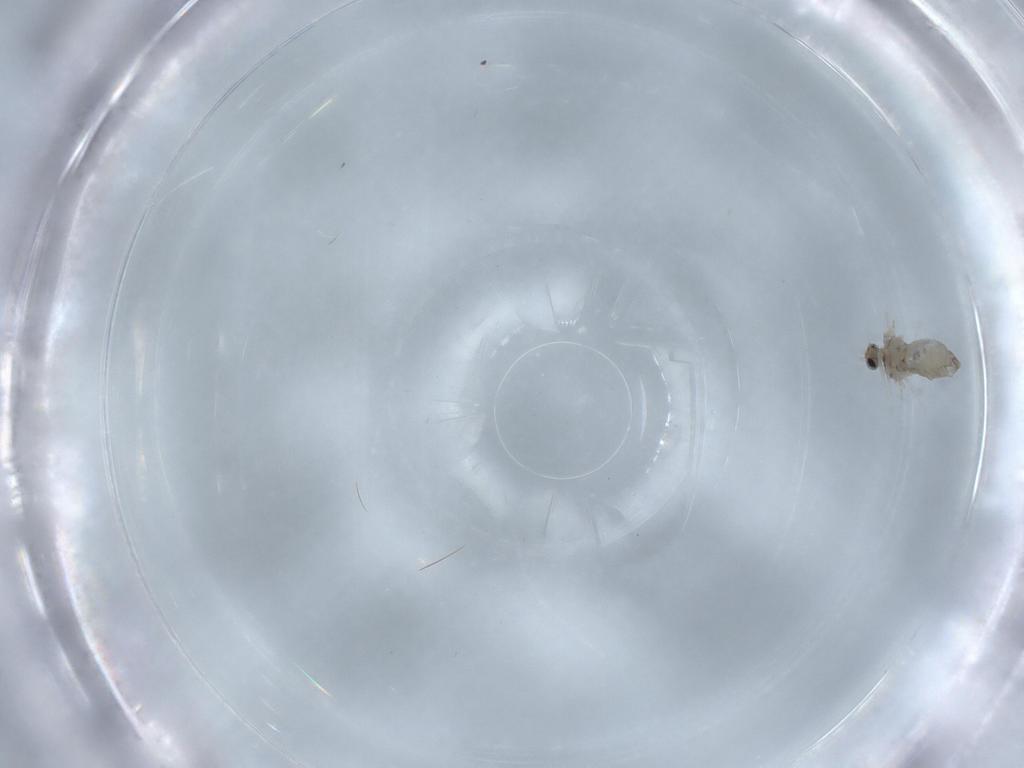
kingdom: Animalia
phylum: Arthropoda
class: Insecta
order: Diptera
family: Cecidomyiidae
